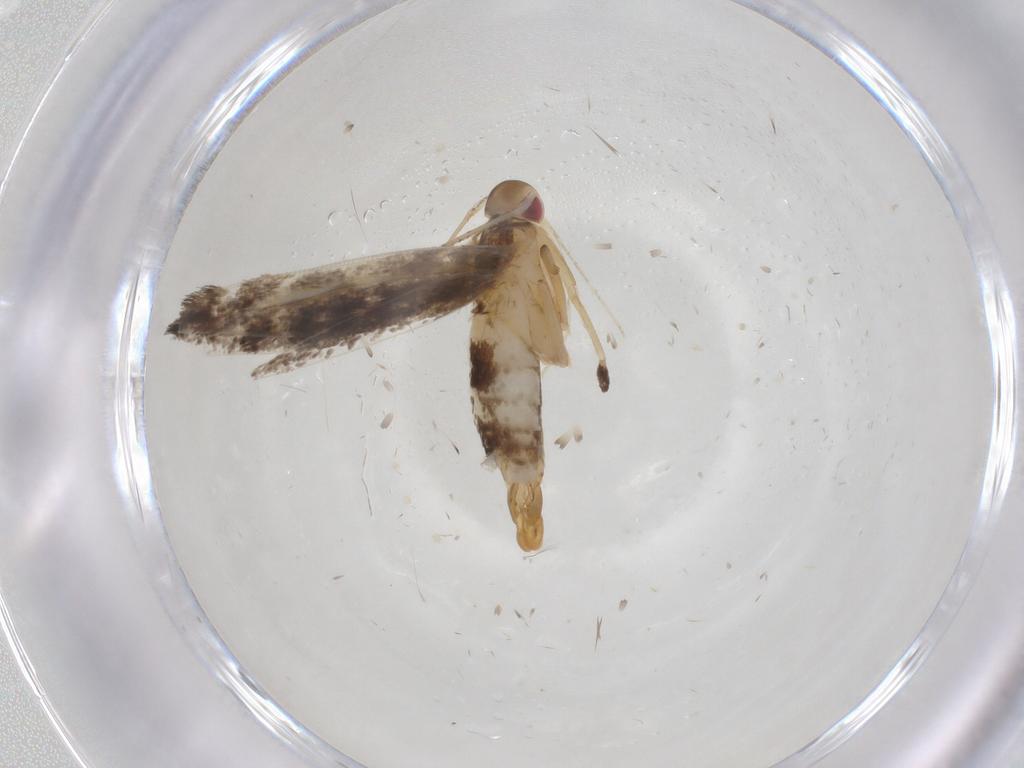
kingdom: Animalia
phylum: Arthropoda
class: Insecta
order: Lepidoptera
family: Cosmopterigidae
